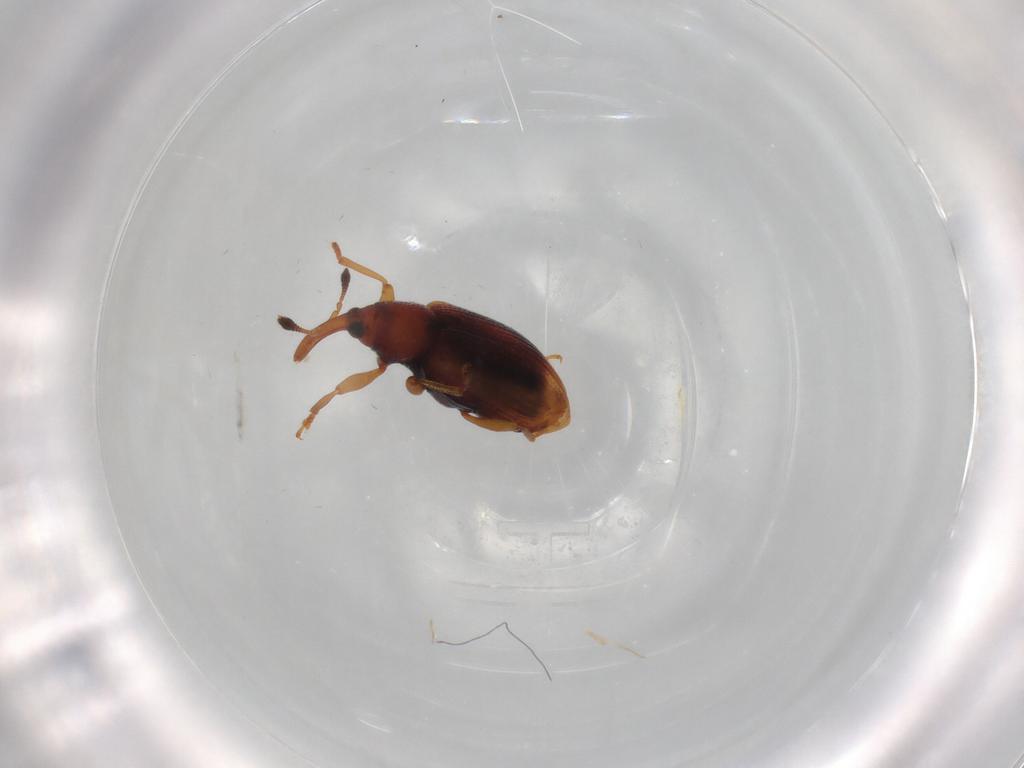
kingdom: Animalia
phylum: Arthropoda
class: Insecta
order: Coleoptera
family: Curculionidae
